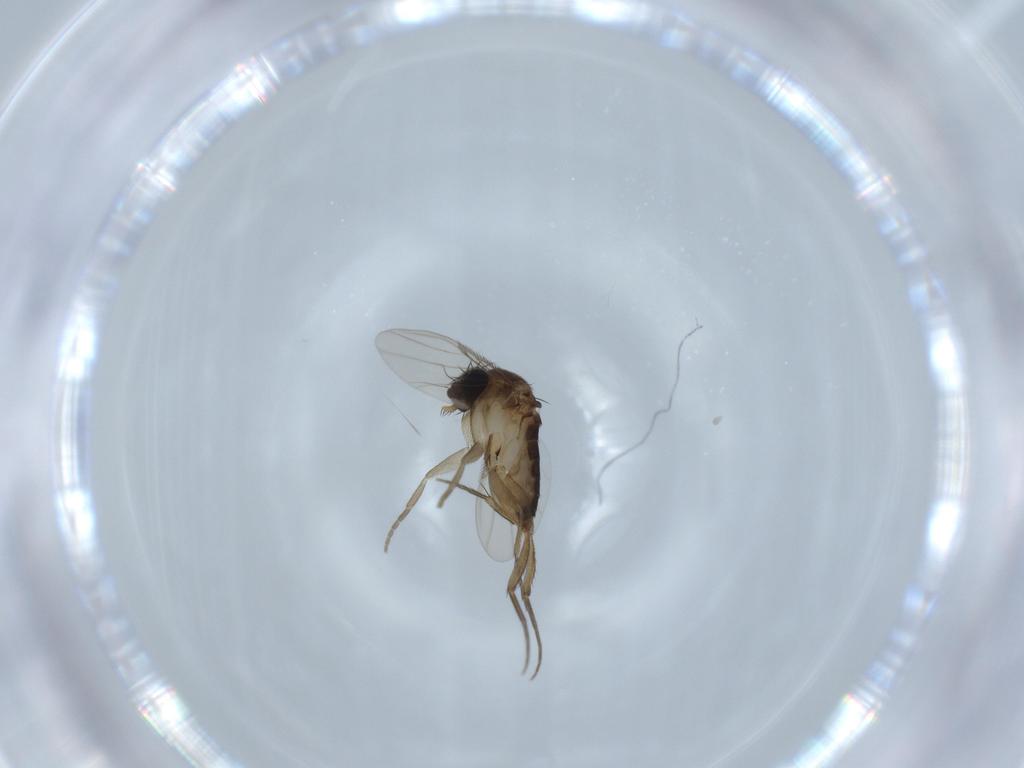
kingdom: Animalia
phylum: Arthropoda
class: Insecta
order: Diptera
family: Phoridae
